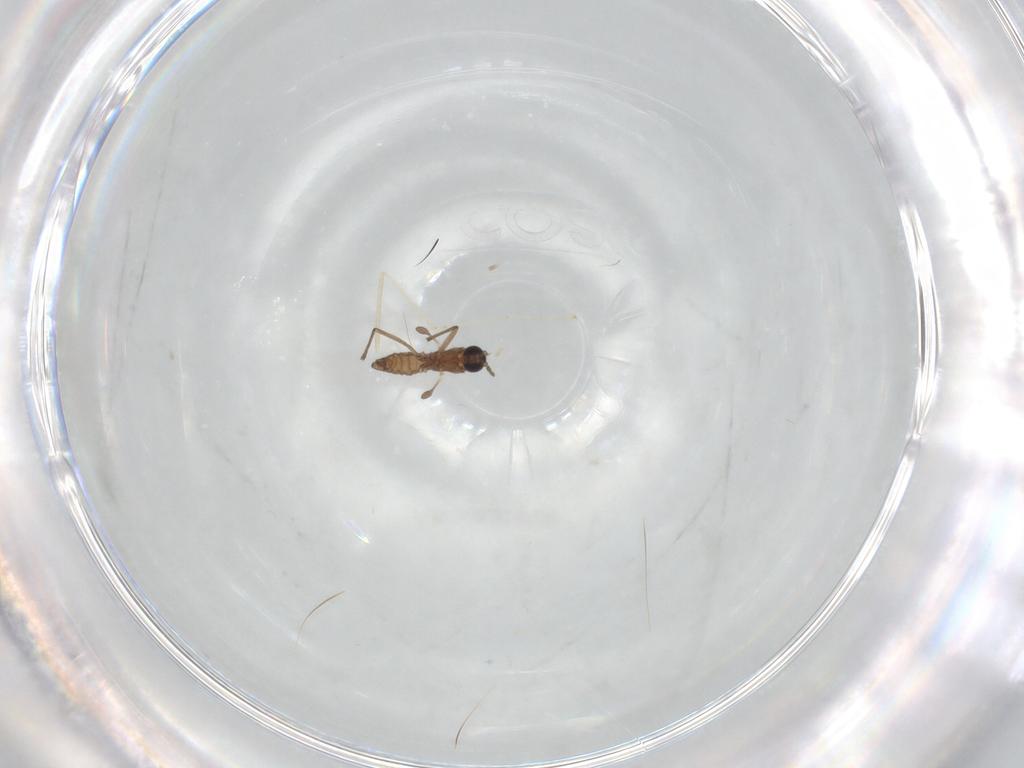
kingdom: Animalia
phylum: Arthropoda
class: Insecta
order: Diptera
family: Sciaridae
